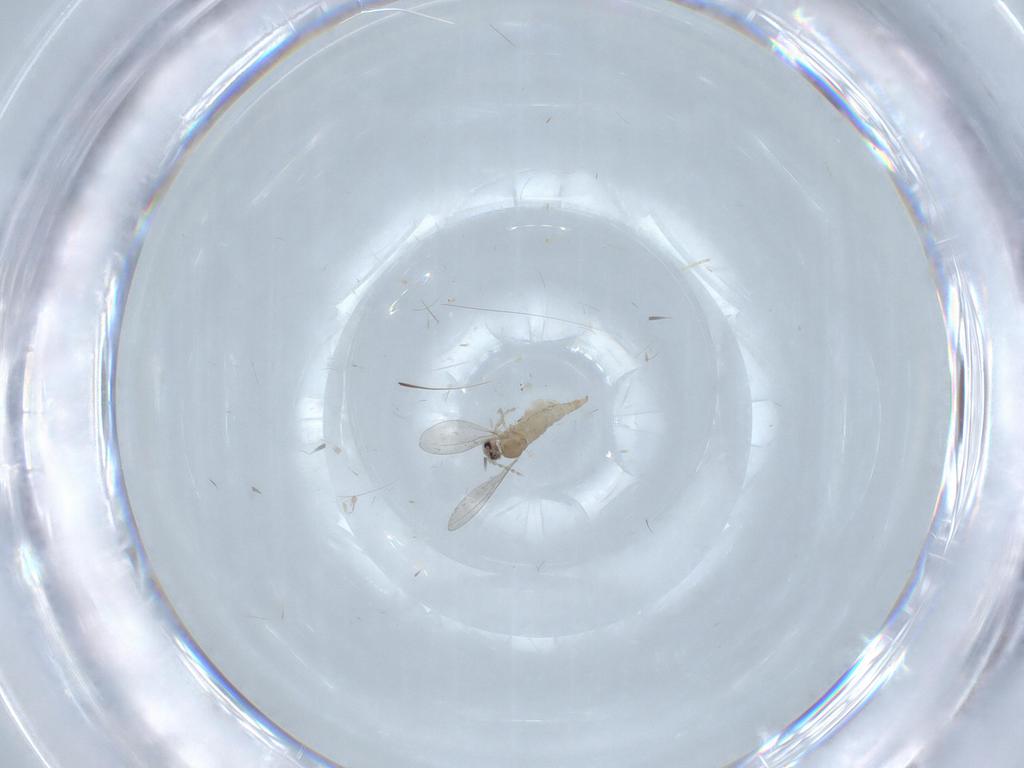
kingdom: Animalia
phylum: Arthropoda
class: Insecta
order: Diptera
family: Cecidomyiidae
